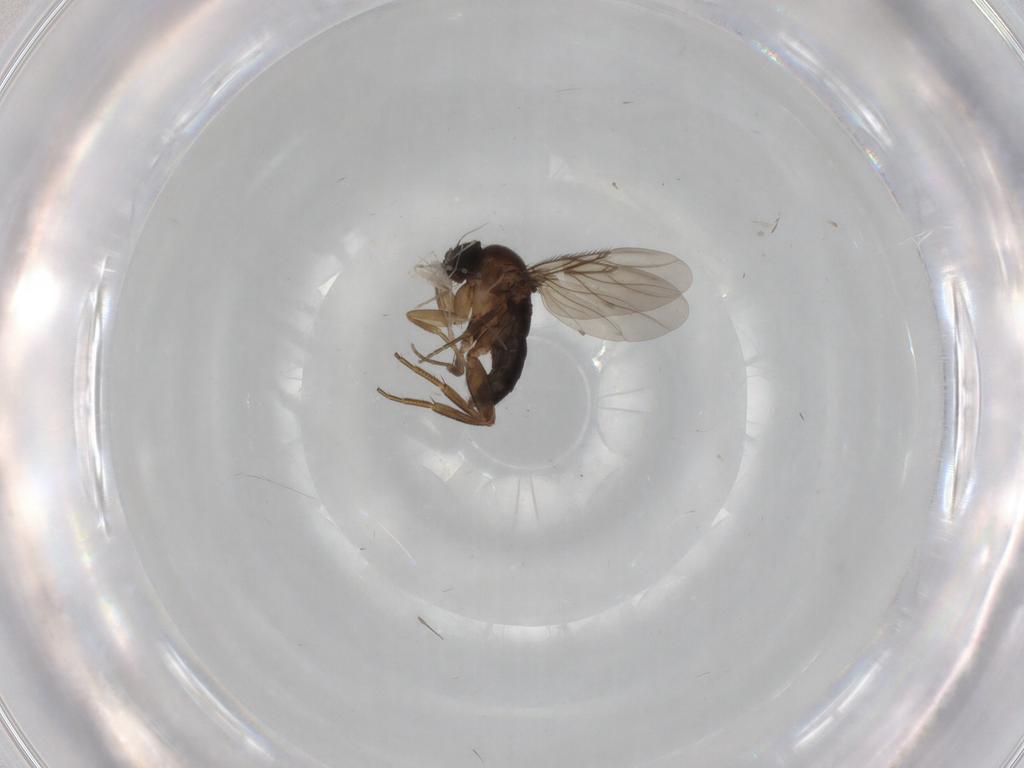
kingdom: Animalia
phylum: Arthropoda
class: Insecta
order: Diptera
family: Phoridae
